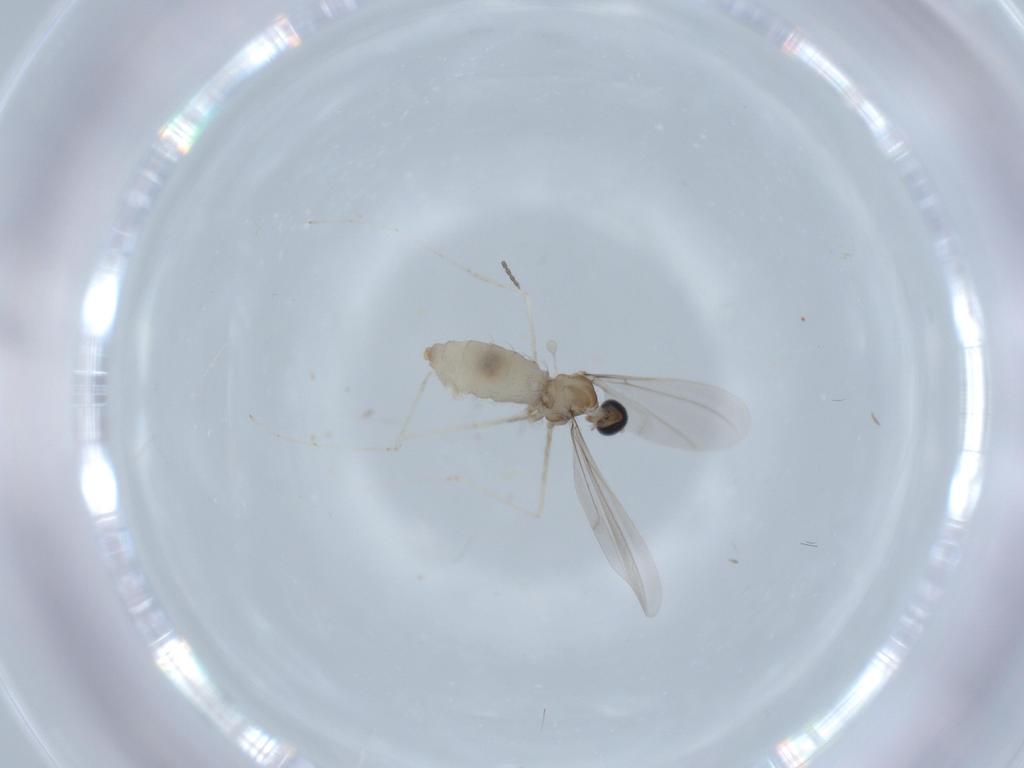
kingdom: Animalia
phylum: Arthropoda
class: Insecta
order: Diptera
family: Cecidomyiidae
